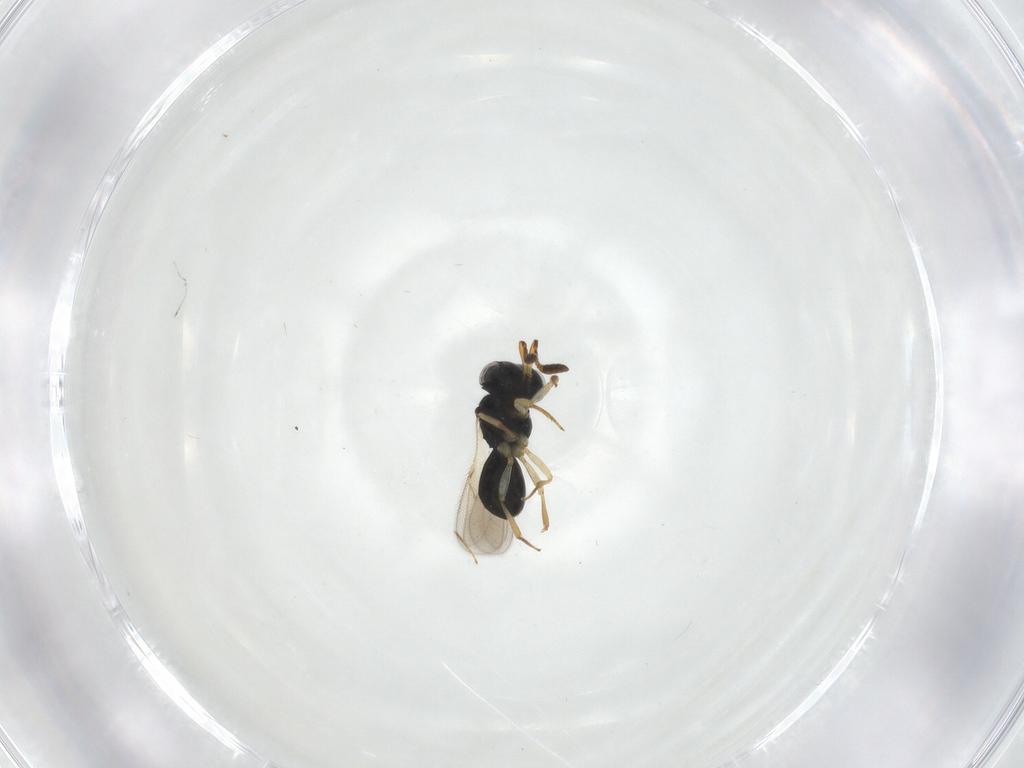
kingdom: Animalia
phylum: Arthropoda
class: Insecta
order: Hymenoptera
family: Scelionidae
